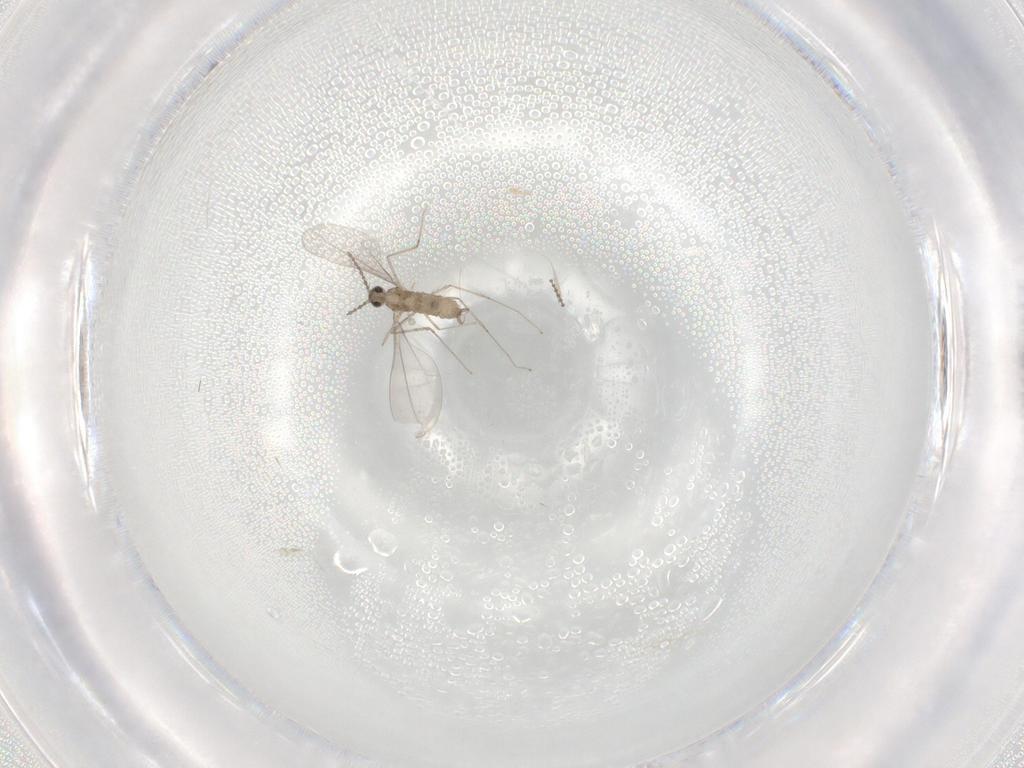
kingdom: Animalia
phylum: Arthropoda
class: Insecta
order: Diptera
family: Cecidomyiidae
